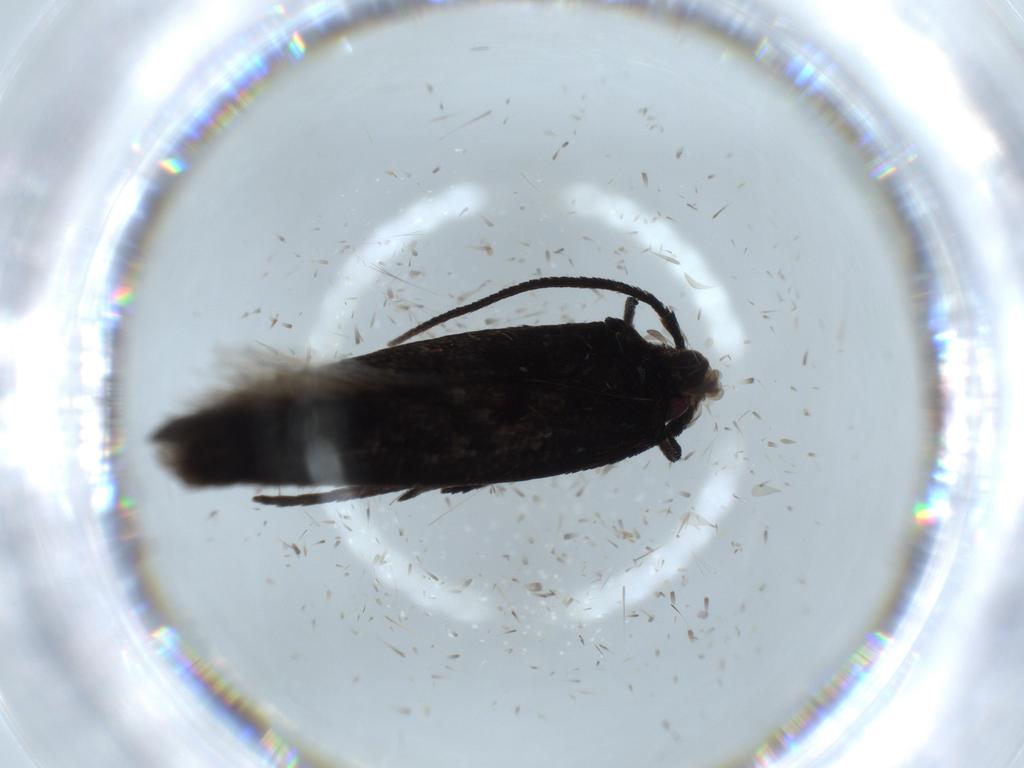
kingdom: Animalia
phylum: Arthropoda
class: Insecta
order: Lepidoptera
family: Cosmopterigidae
